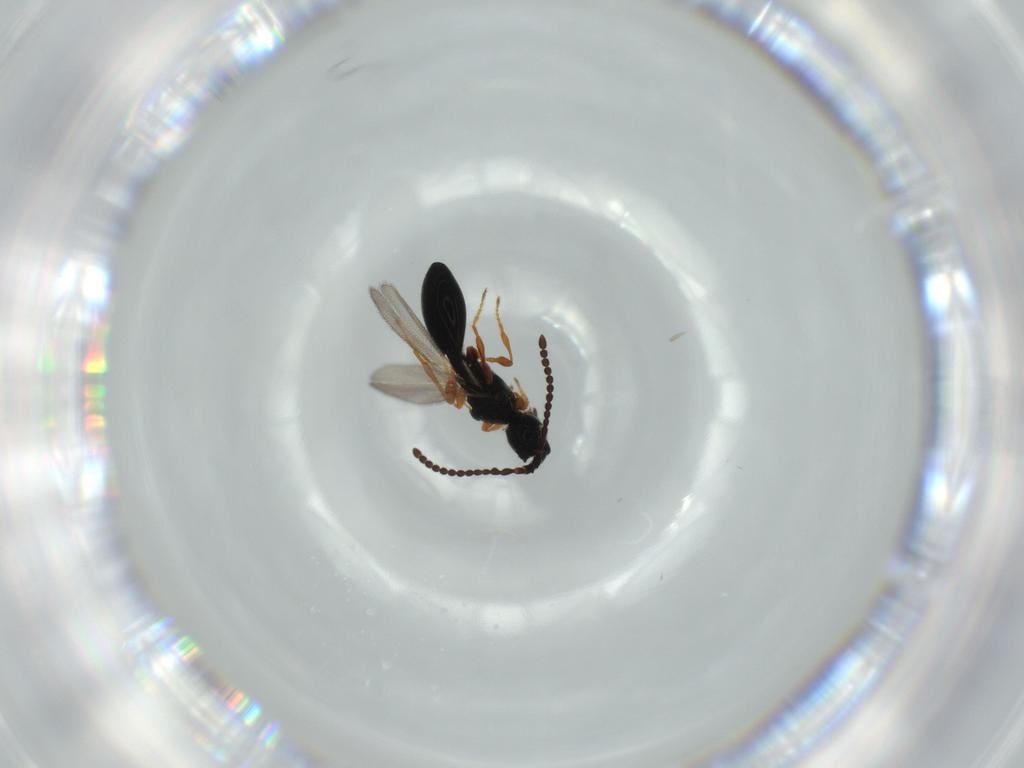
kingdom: Animalia
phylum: Arthropoda
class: Insecta
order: Hymenoptera
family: Diapriidae
